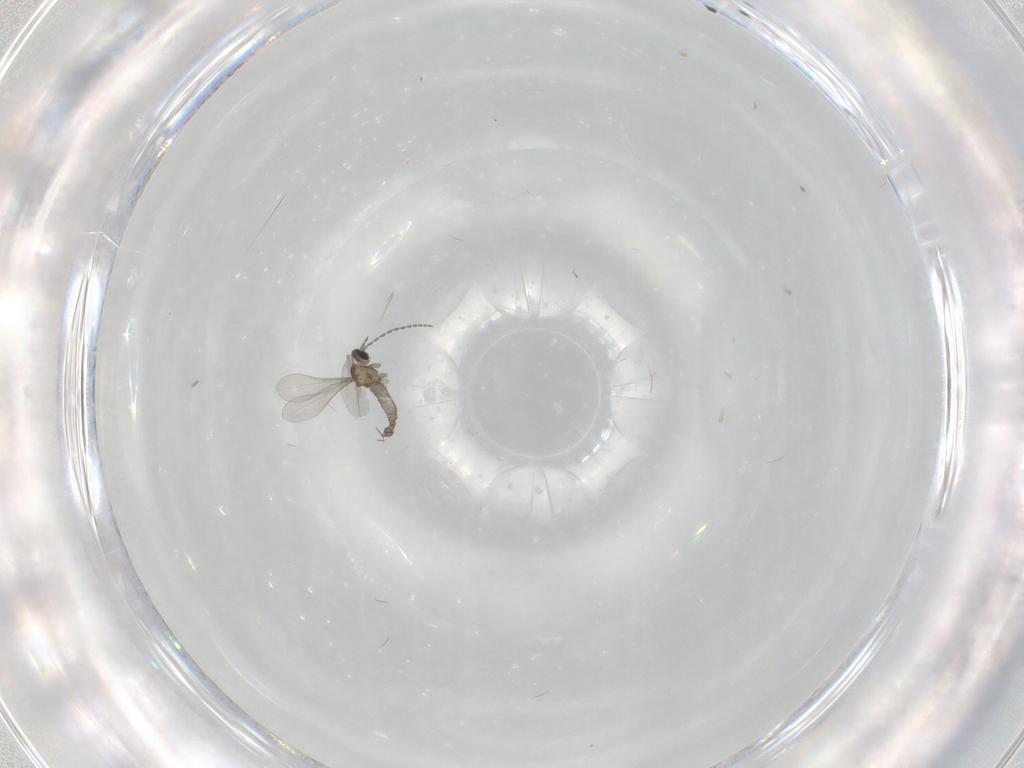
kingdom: Animalia
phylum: Arthropoda
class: Insecta
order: Diptera
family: Cecidomyiidae
